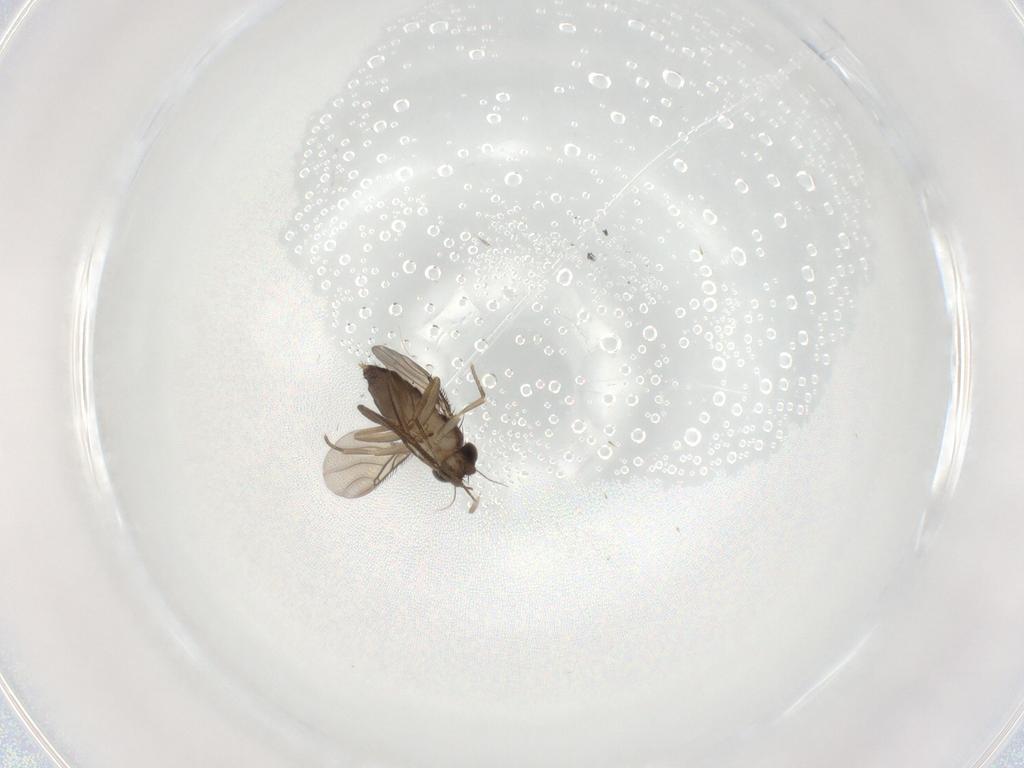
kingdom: Animalia
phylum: Arthropoda
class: Insecta
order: Diptera
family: Phoridae
